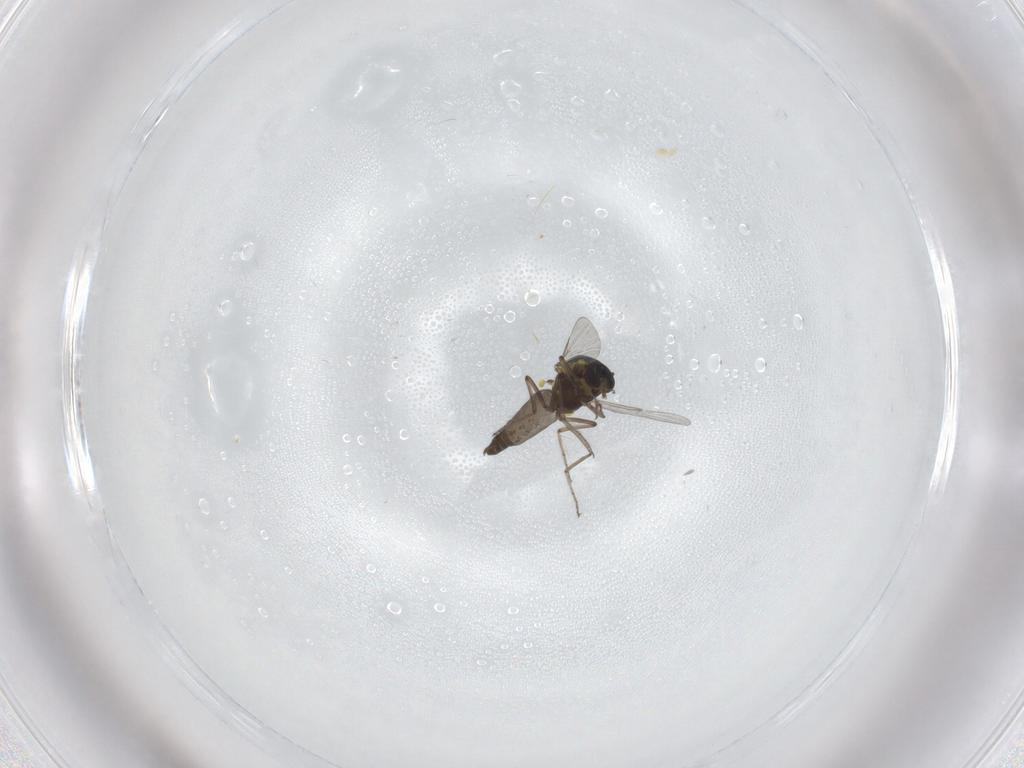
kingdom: Animalia
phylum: Arthropoda
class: Insecta
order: Diptera
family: Ceratopogonidae
